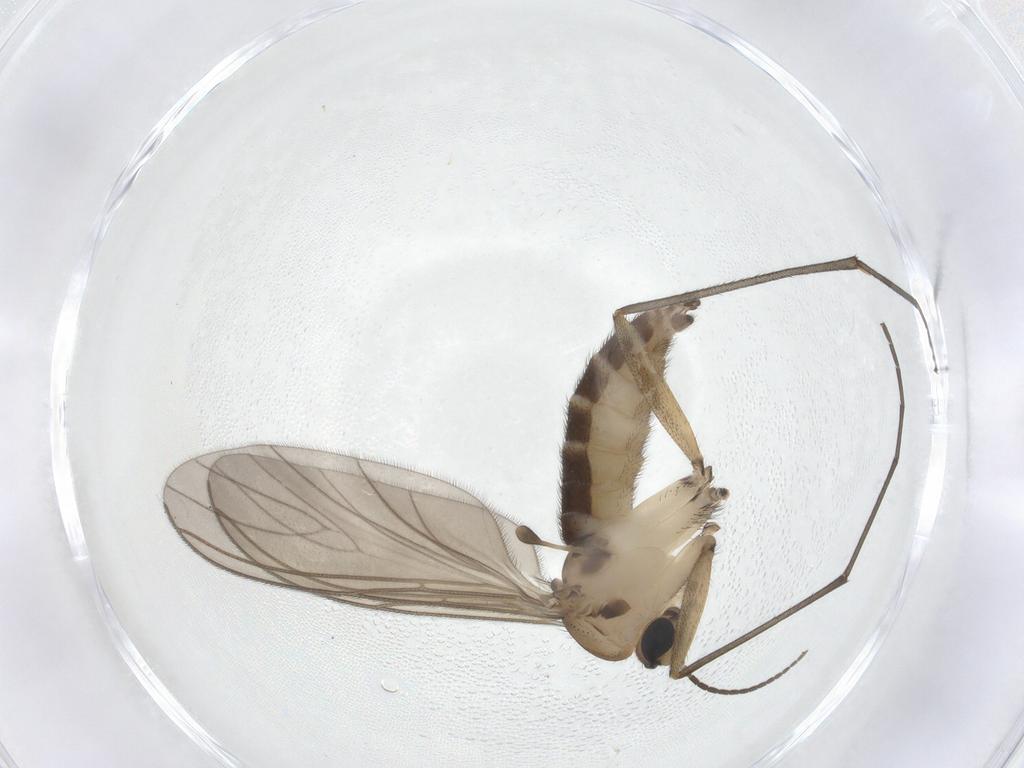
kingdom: Animalia
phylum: Arthropoda
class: Insecta
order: Diptera
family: Sciaridae
